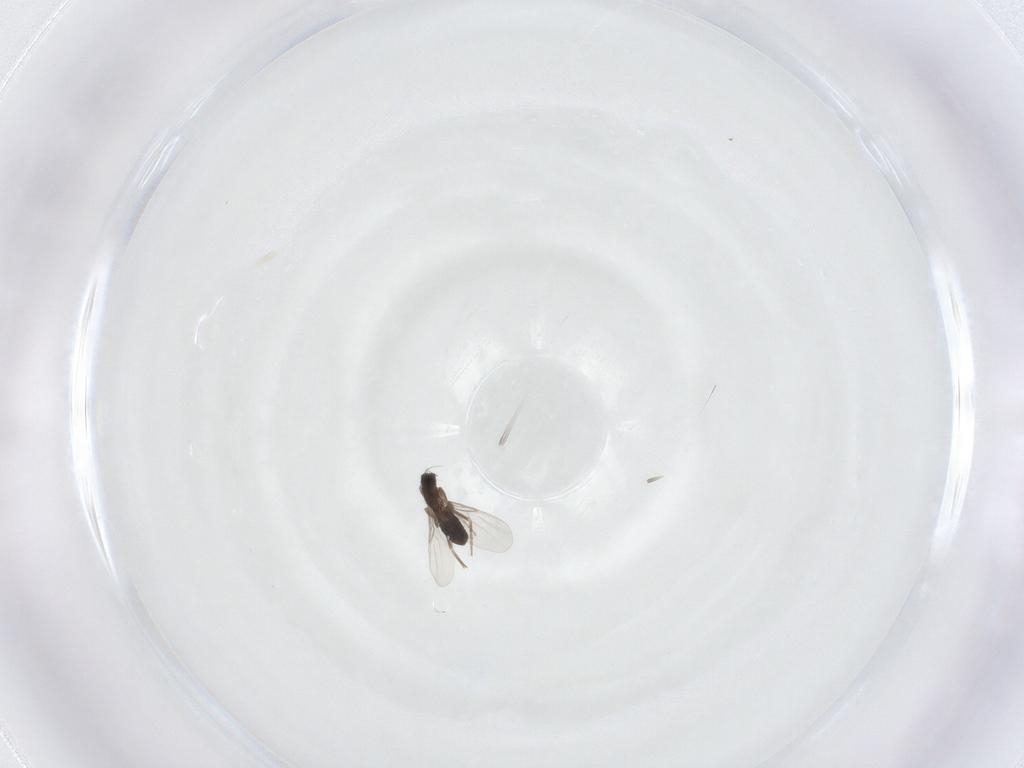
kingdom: Animalia
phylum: Arthropoda
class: Insecta
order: Diptera
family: Phoridae
